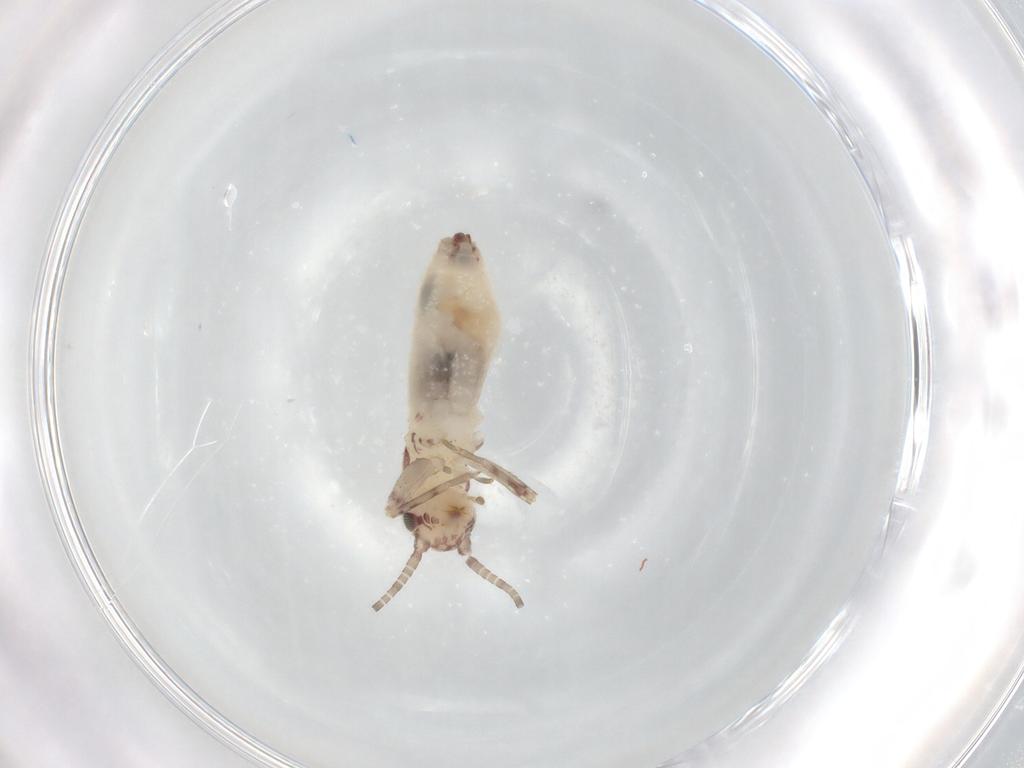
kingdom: Animalia
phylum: Arthropoda
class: Insecta
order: Orthoptera
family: Mogoplistidae
